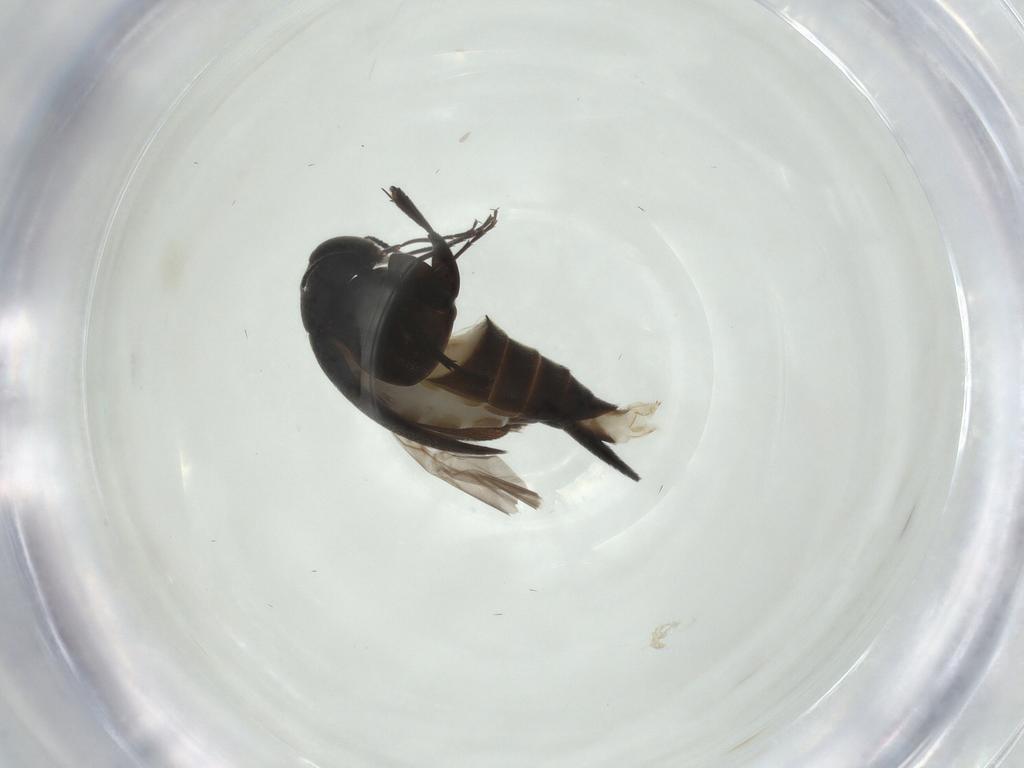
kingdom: Animalia
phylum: Arthropoda
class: Insecta
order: Coleoptera
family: Mordellidae
